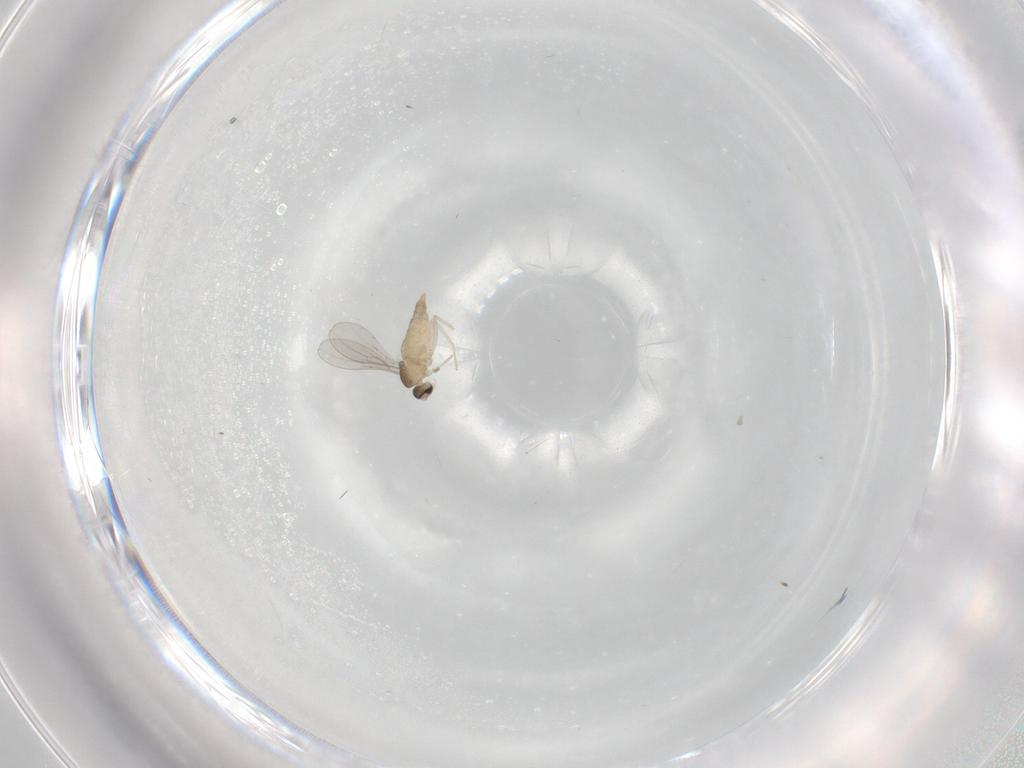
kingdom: Animalia
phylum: Arthropoda
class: Insecta
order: Diptera
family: Cecidomyiidae
